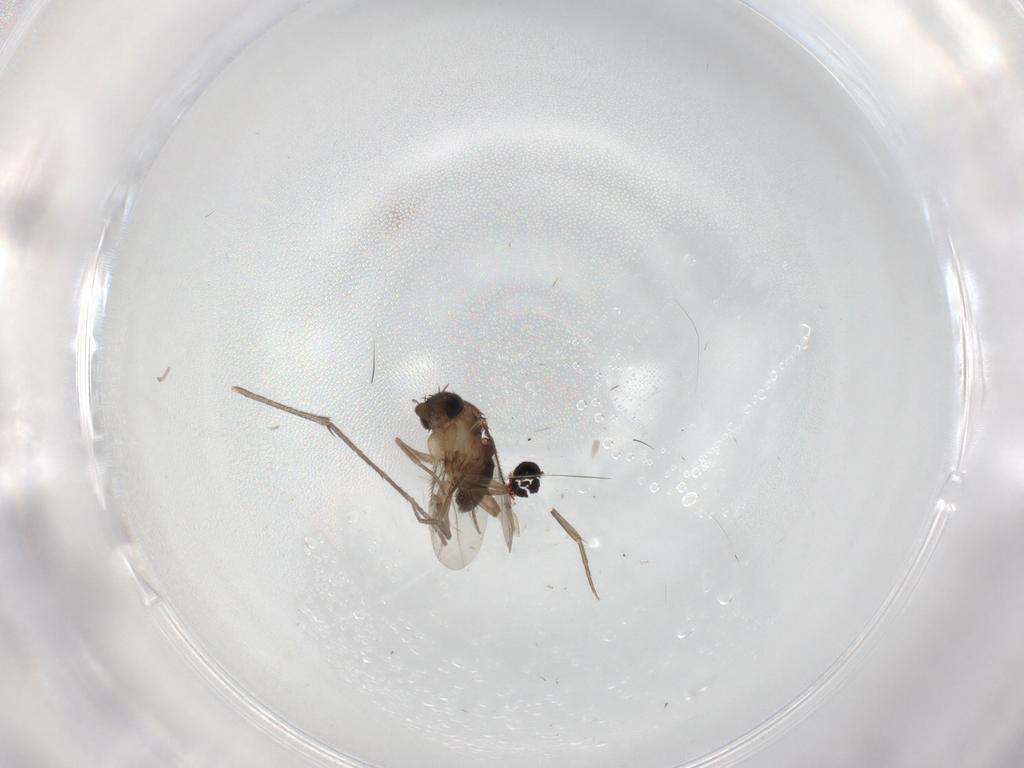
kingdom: Animalia
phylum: Arthropoda
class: Insecta
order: Diptera
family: Phoridae
